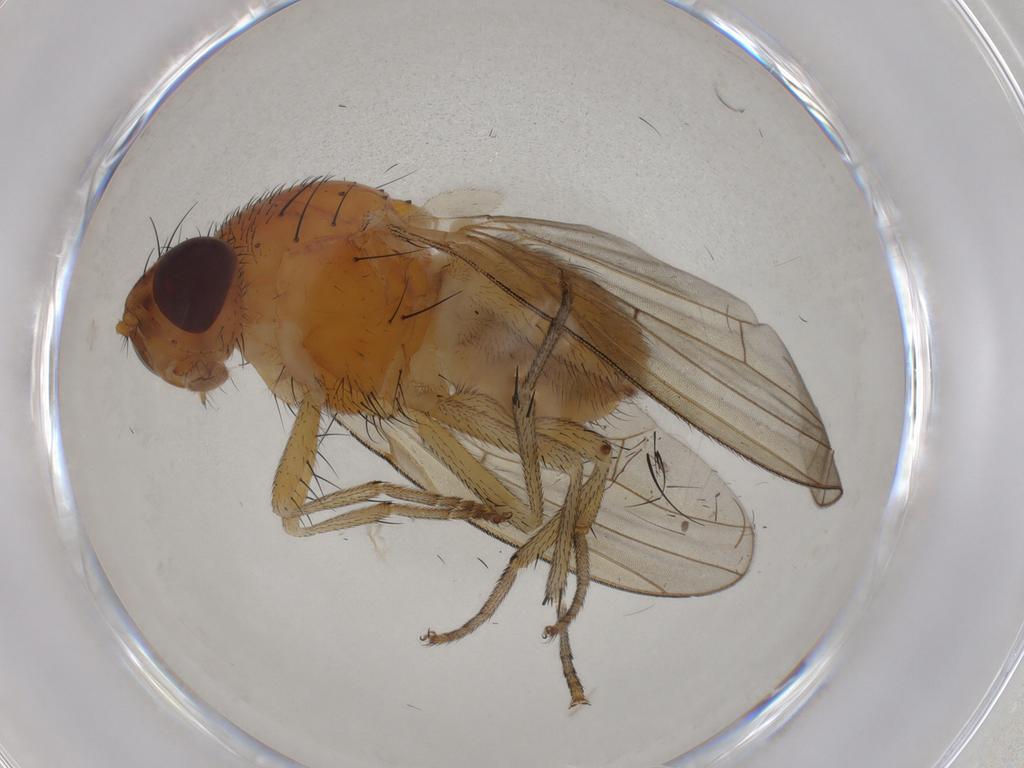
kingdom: Animalia
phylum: Arthropoda
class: Insecta
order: Diptera
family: Muscidae
